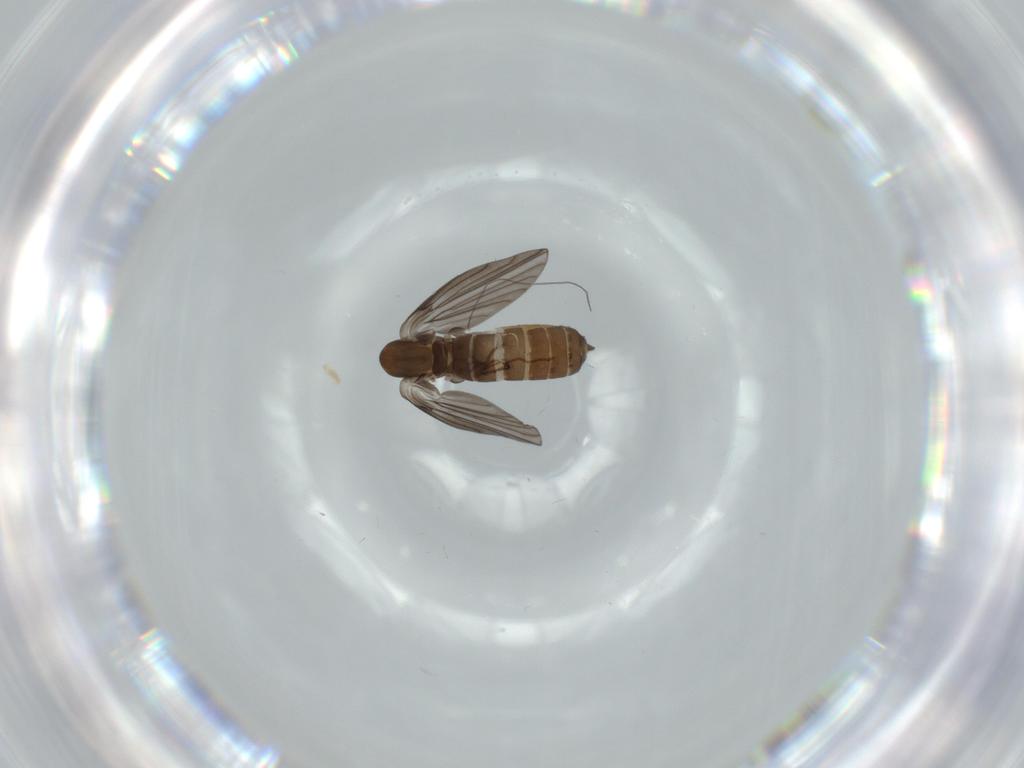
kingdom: Animalia
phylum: Arthropoda
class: Insecta
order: Diptera
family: Psychodidae
